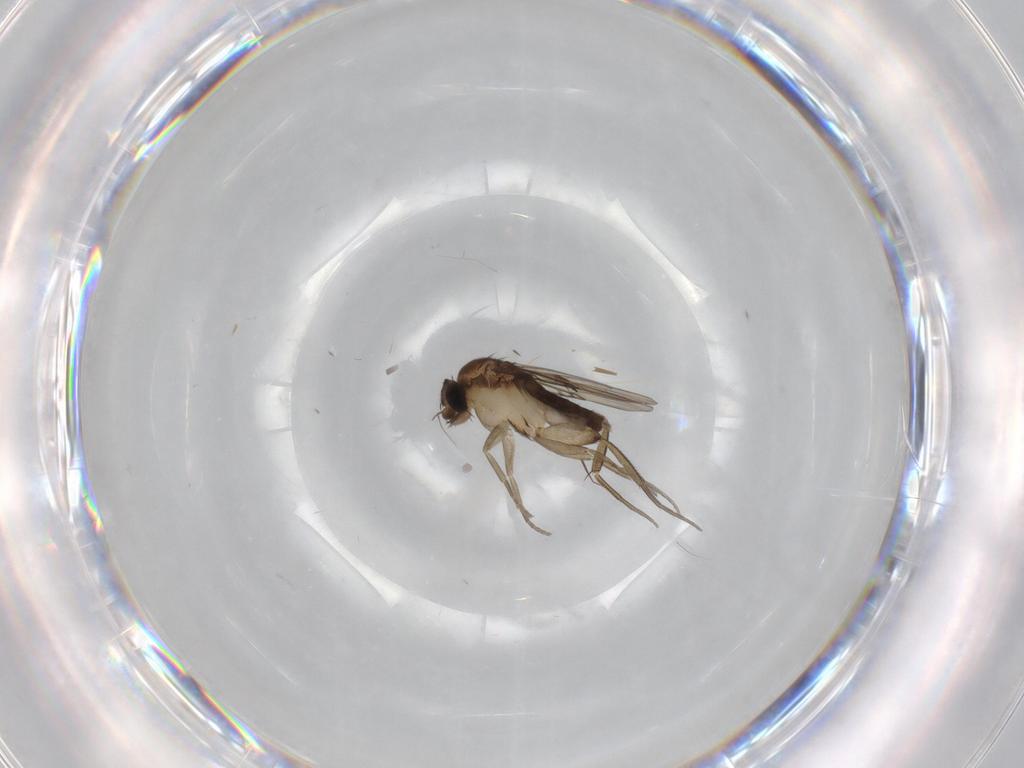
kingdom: Animalia
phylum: Arthropoda
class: Insecta
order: Diptera
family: Phoridae
